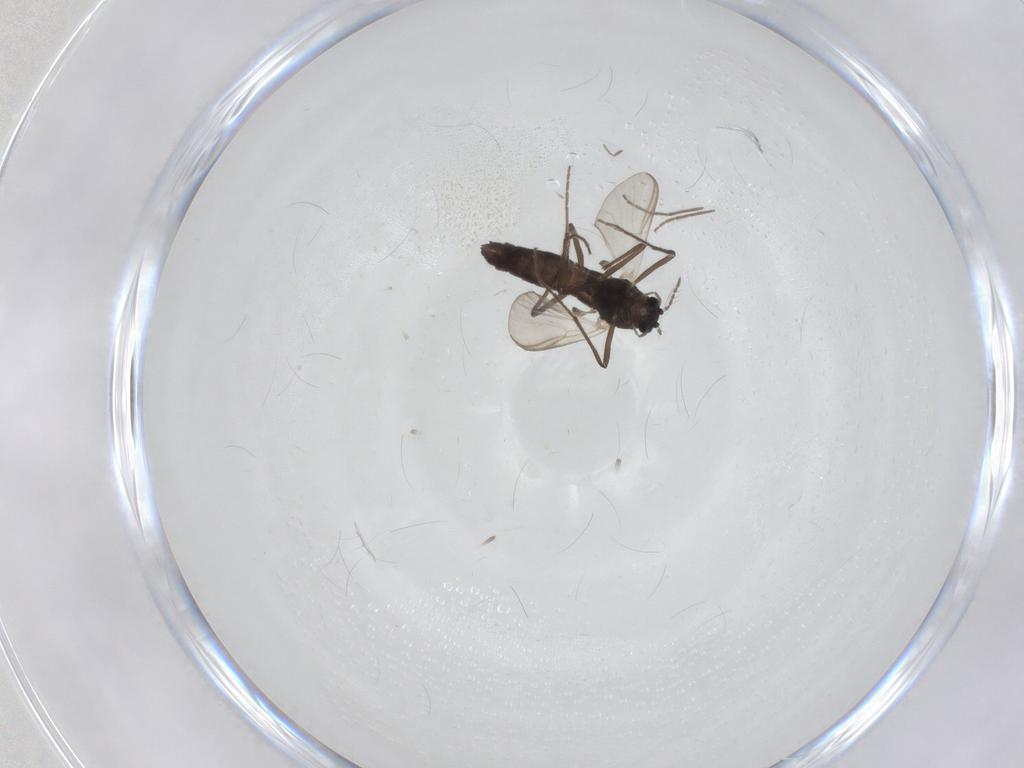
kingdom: Animalia
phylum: Arthropoda
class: Insecta
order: Diptera
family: Chironomidae
